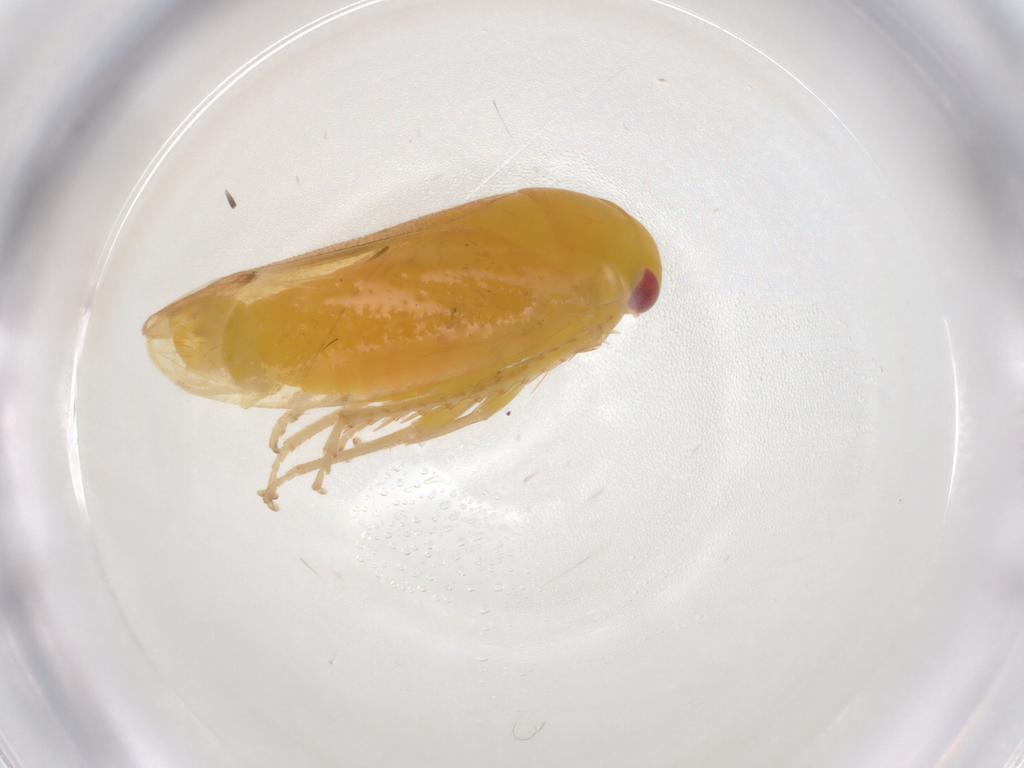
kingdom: Animalia
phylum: Arthropoda
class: Insecta
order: Hemiptera
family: Cicadellidae
